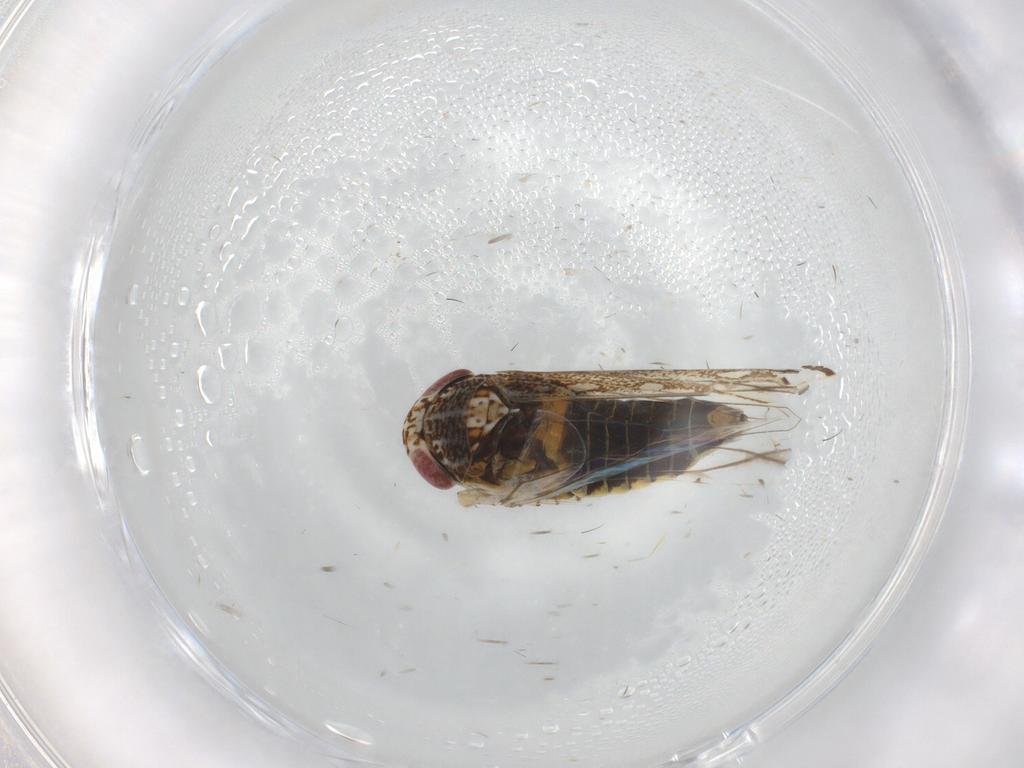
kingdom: Animalia
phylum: Arthropoda
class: Insecta
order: Hemiptera
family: Cicadellidae
